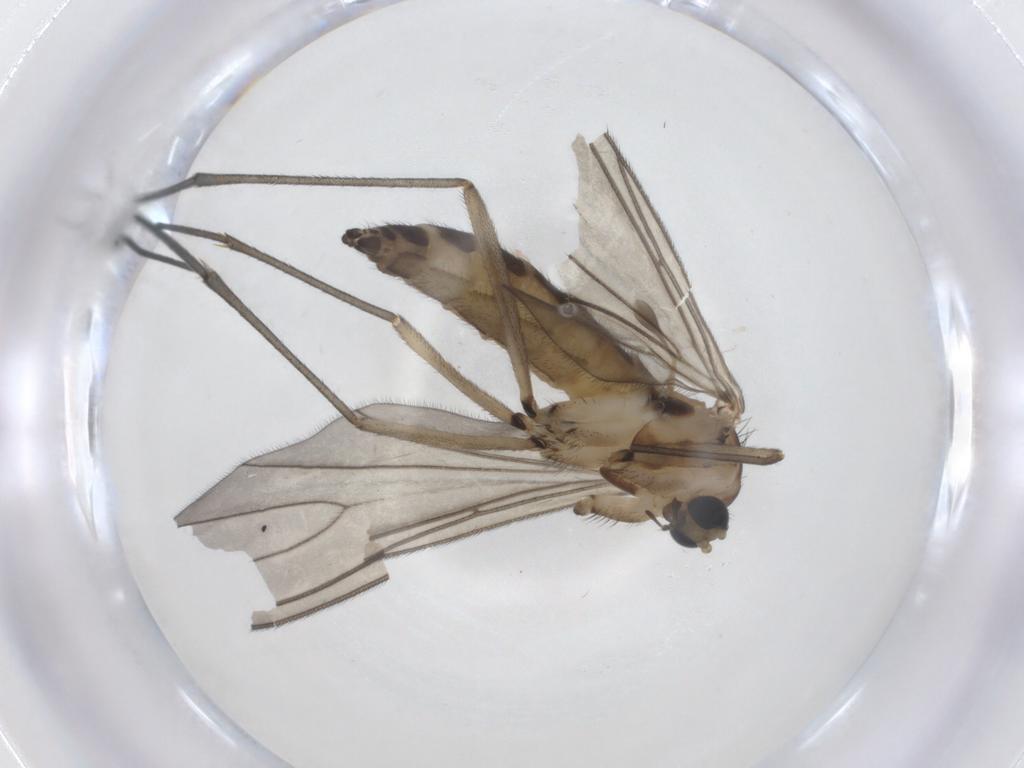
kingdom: Animalia
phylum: Arthropoda
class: Insecta
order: Diptera
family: Sciaridae
